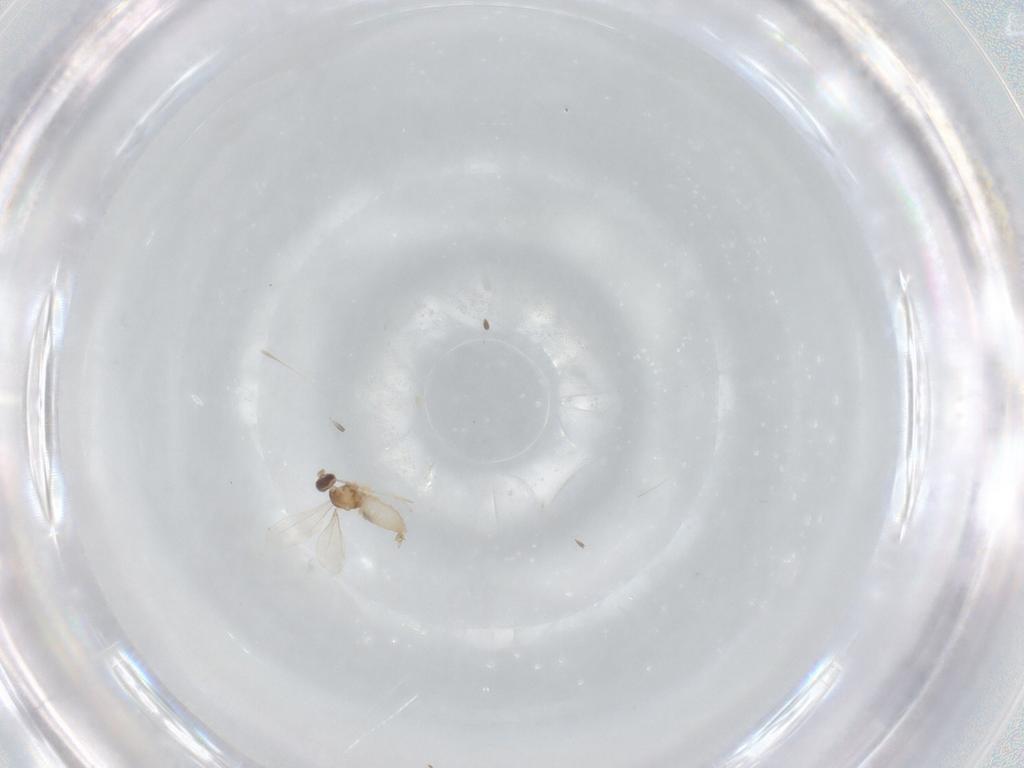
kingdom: Animalia
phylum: Arthropoda
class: Insecta
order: Diptera
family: Cecidomyiidae
